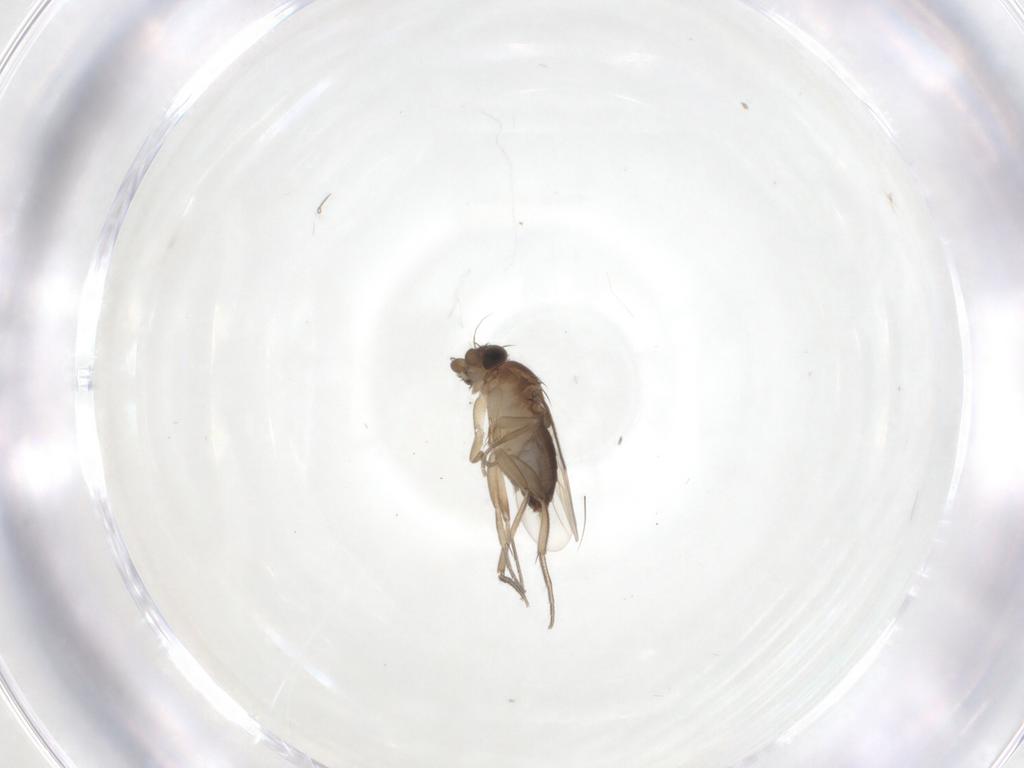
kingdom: Animalia
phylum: Arthropoda
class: Insecta
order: Diptera
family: Phoridae
